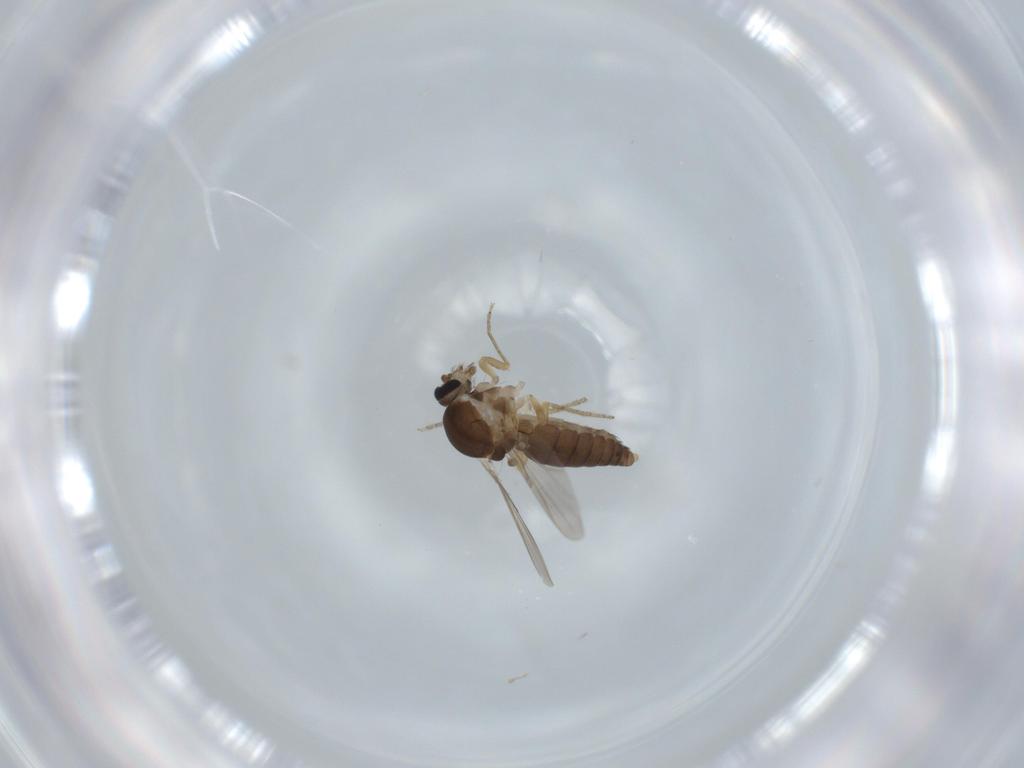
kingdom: Animalia
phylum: Arthropoda
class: Insecta
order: Diptera
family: Ceratopogonidae
